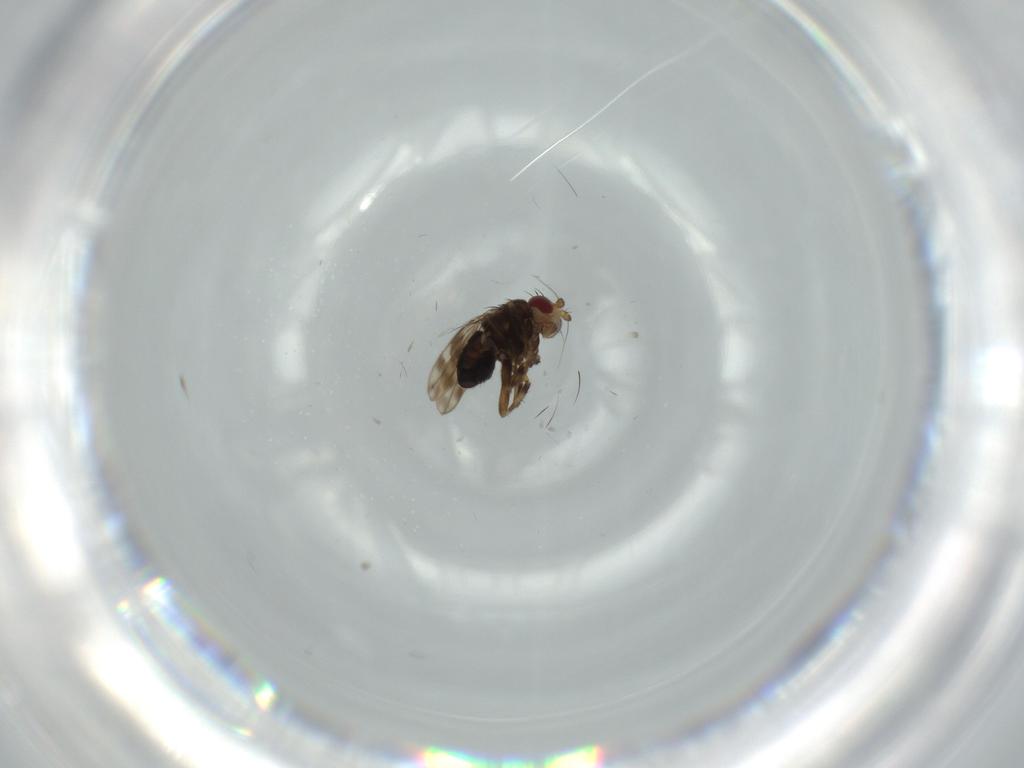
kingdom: Animalia
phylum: Arthropoda
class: Insecta
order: Diptera
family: Sphaeroceridae
